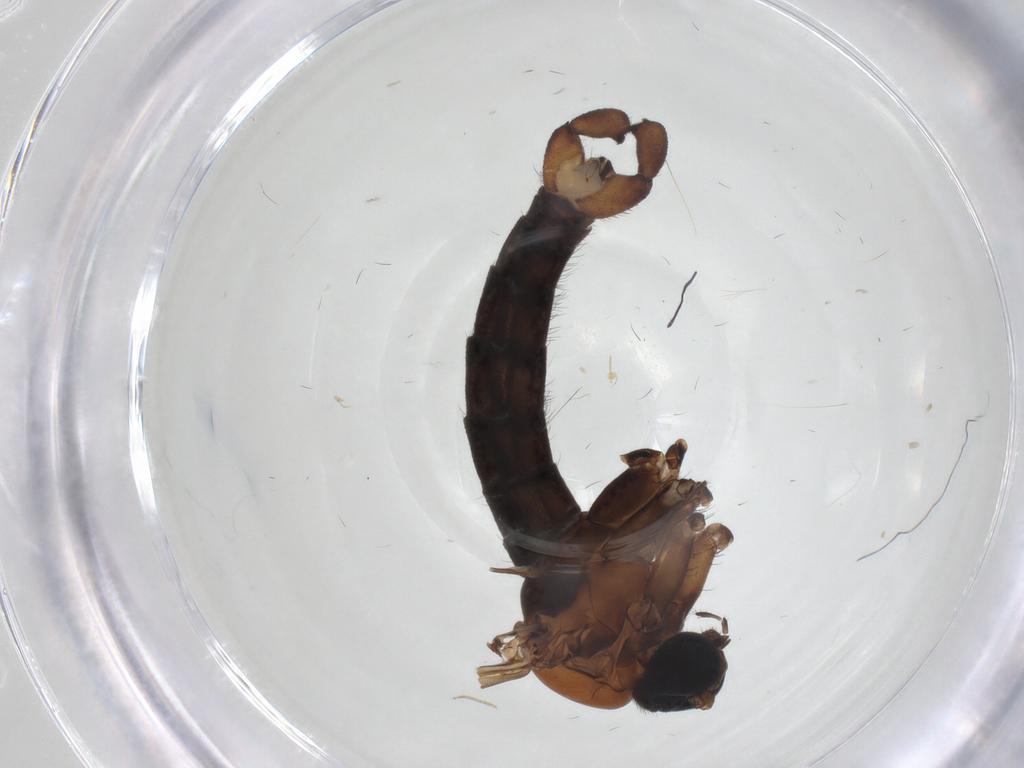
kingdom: Animalia
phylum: Arthropoda
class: Insecta
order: Diptera
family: Sciaridae
